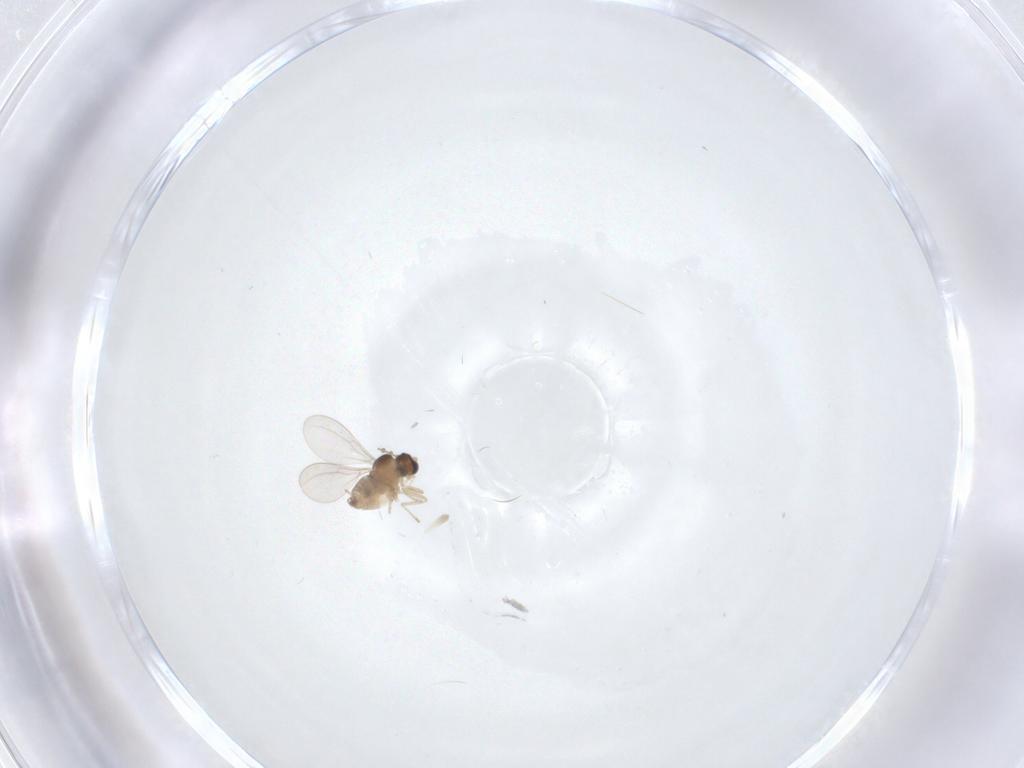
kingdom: Animalia
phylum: Arthropoda
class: Insecta
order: Diptera
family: Cecidomyiidae
